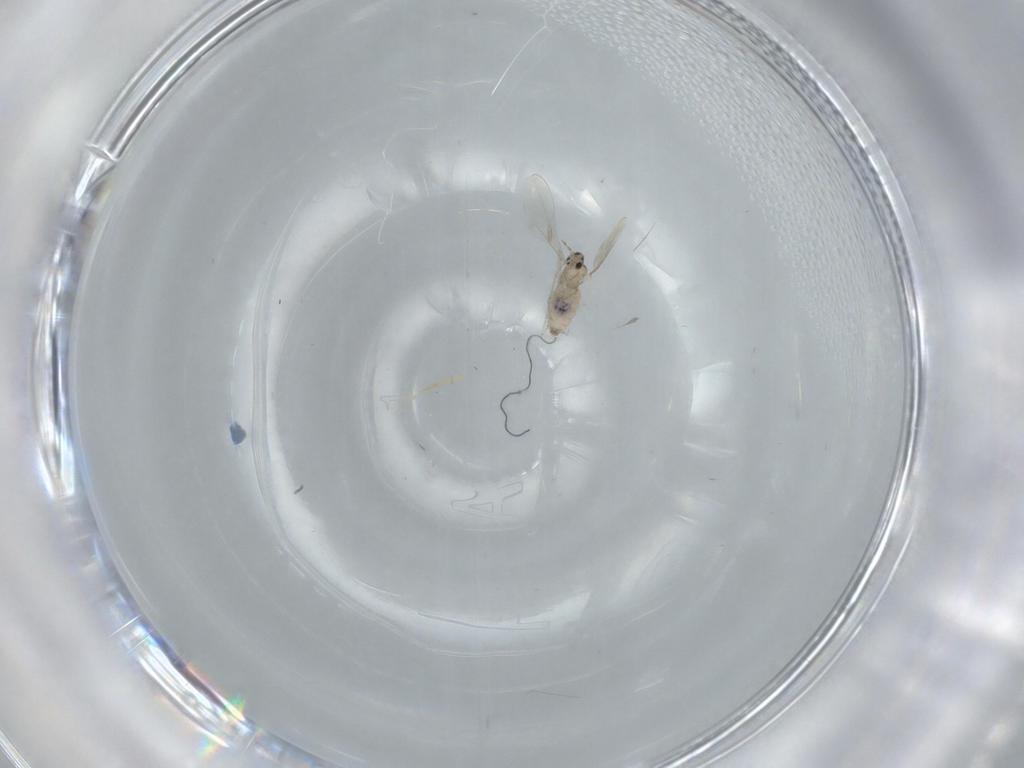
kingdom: Animalia
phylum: Arthropoda
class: Insecta
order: Diptera
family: Cecidomyiidae
